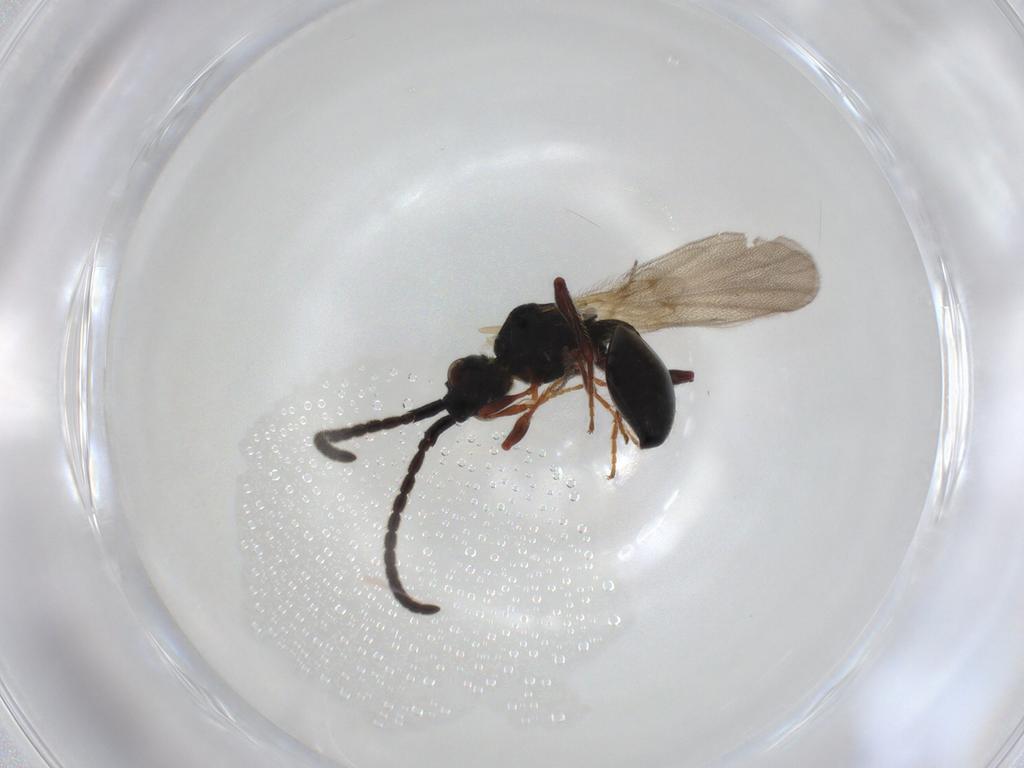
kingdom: Animalia
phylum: Arthropoda
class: Insecta
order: Hymenoptera
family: Diapriidae
